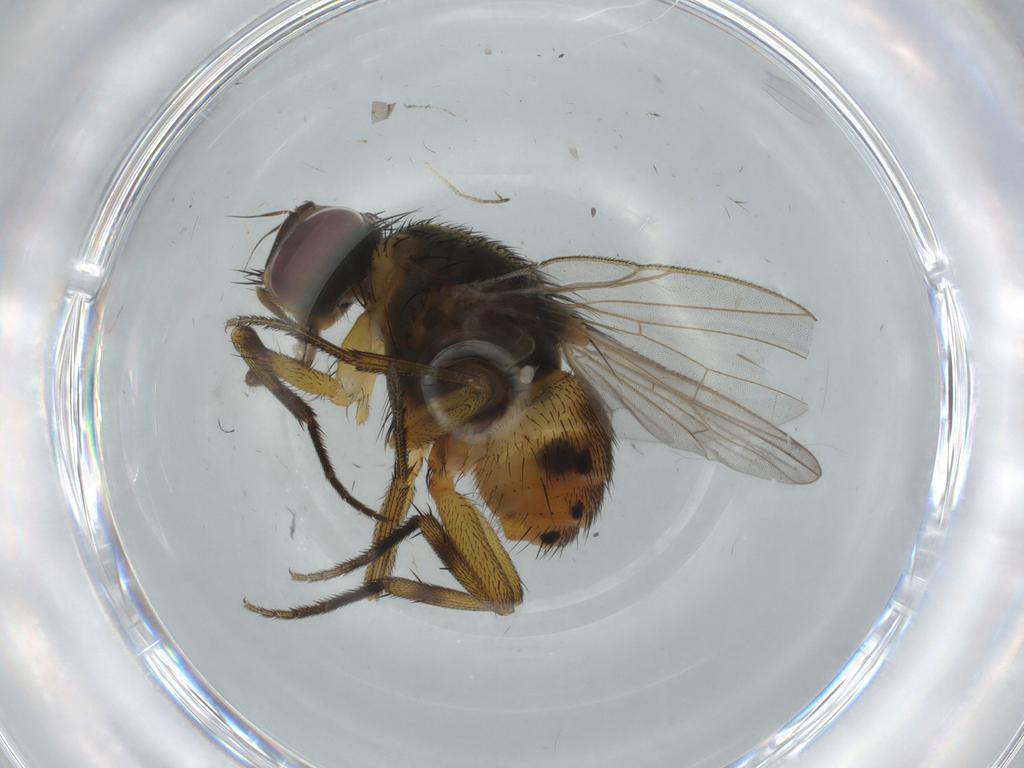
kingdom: Animalia
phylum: Arthropoda
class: Insecta
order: Diptera
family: Muscidae
